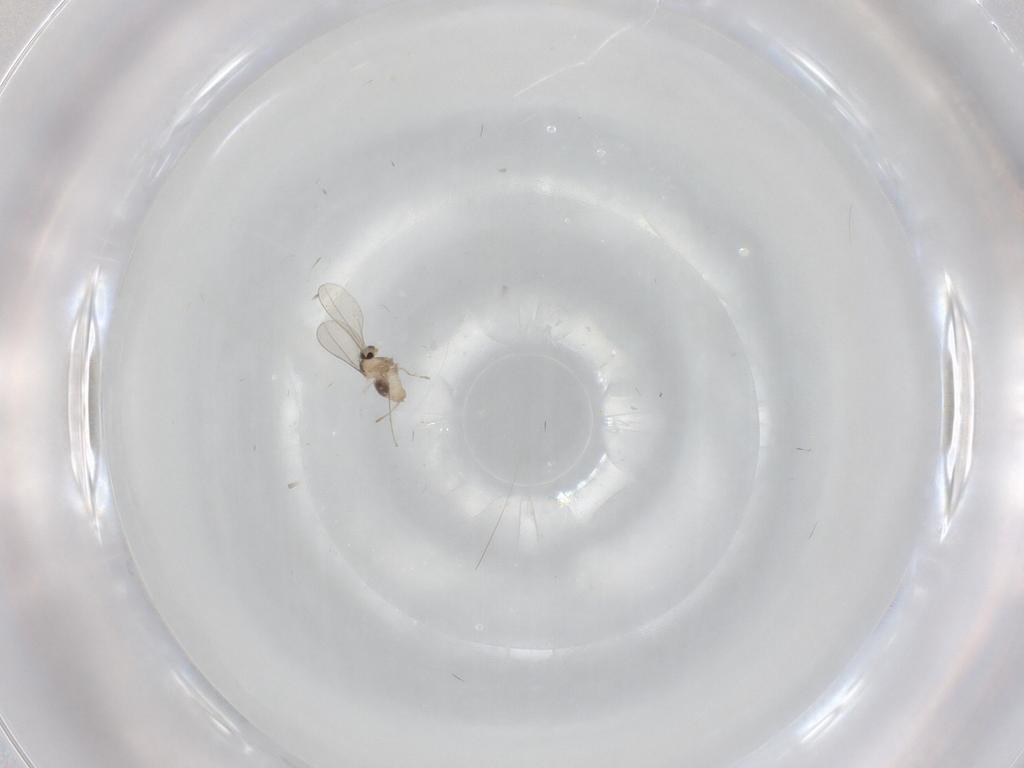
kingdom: Animalia
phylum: Arthropoda
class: Insecta
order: Diptera
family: Cecidomyiidae
